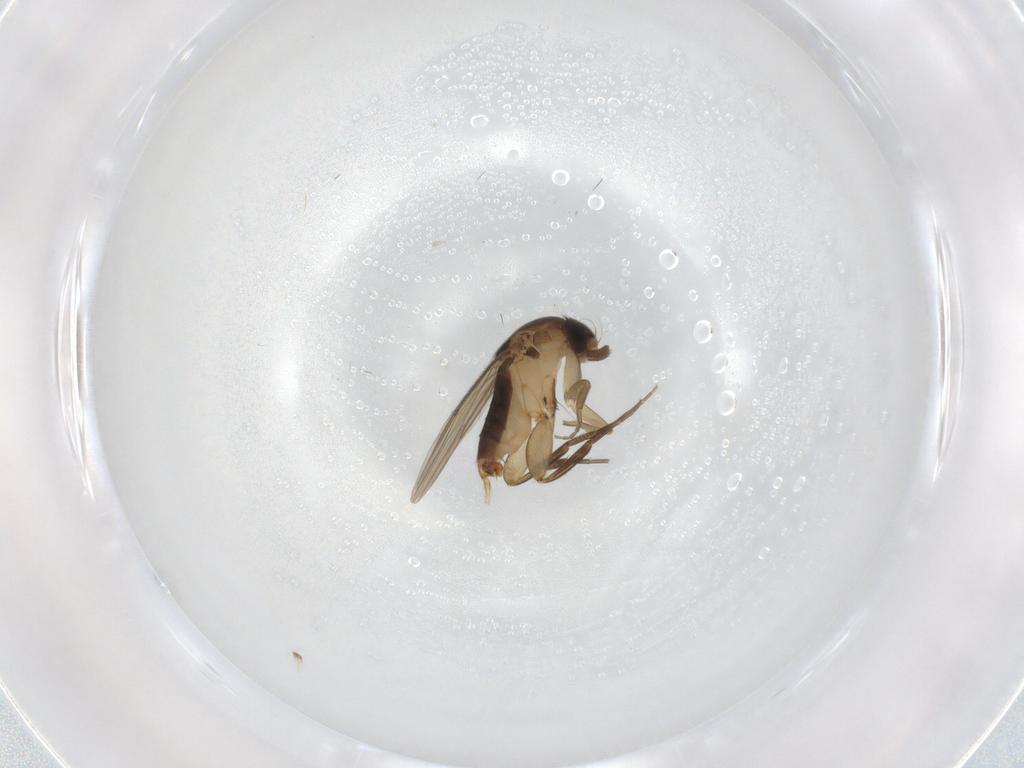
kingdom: Animalia
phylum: Arthropoda
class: Insecta
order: Diptera
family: Phoridae
